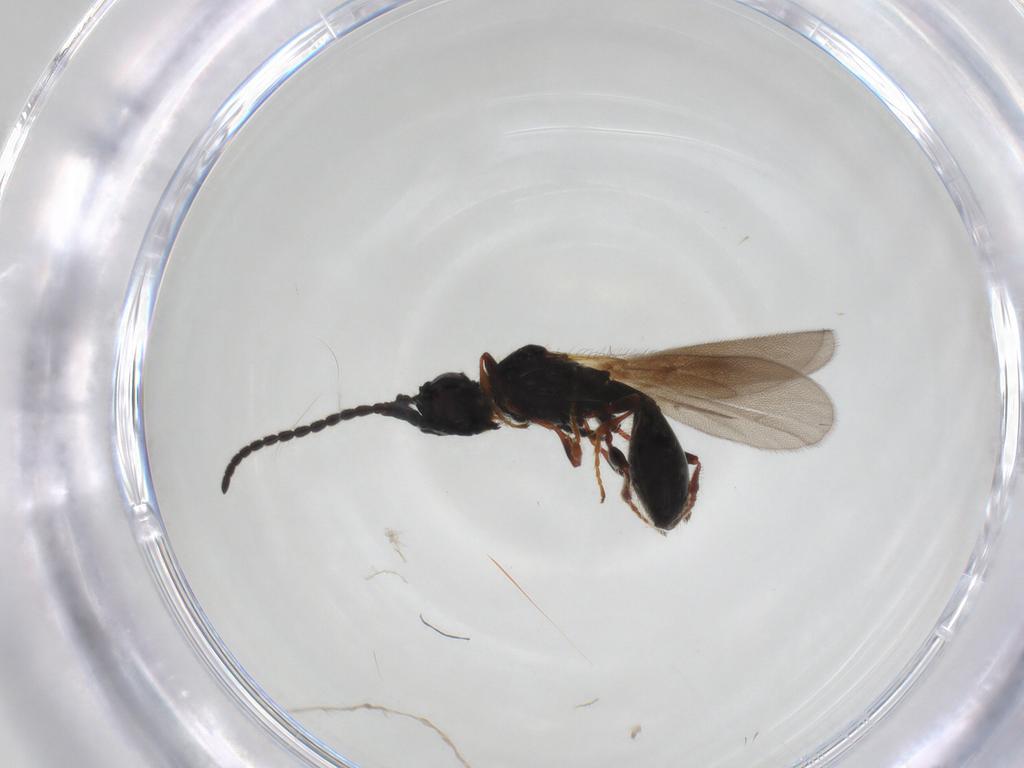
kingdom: Animalia
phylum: Arthropoda
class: Insecta
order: Hymenoptera
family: Diapriidae
